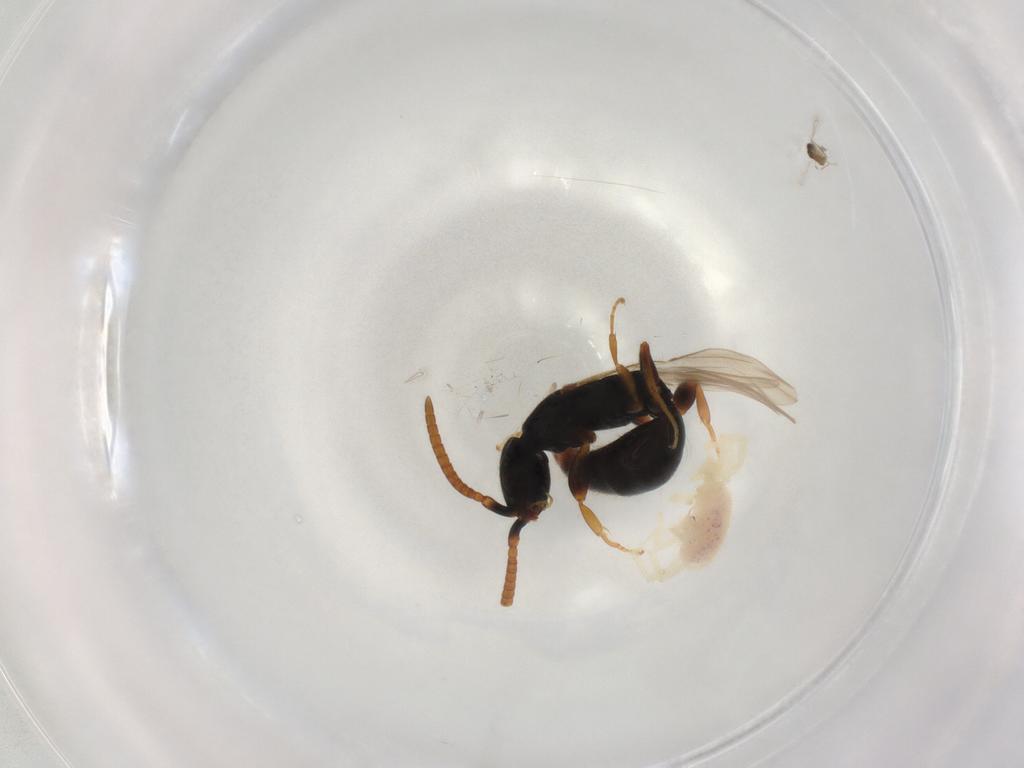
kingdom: Animalia
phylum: Arthropoda
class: Insecta
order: Hymenoptera
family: Bethylidae
